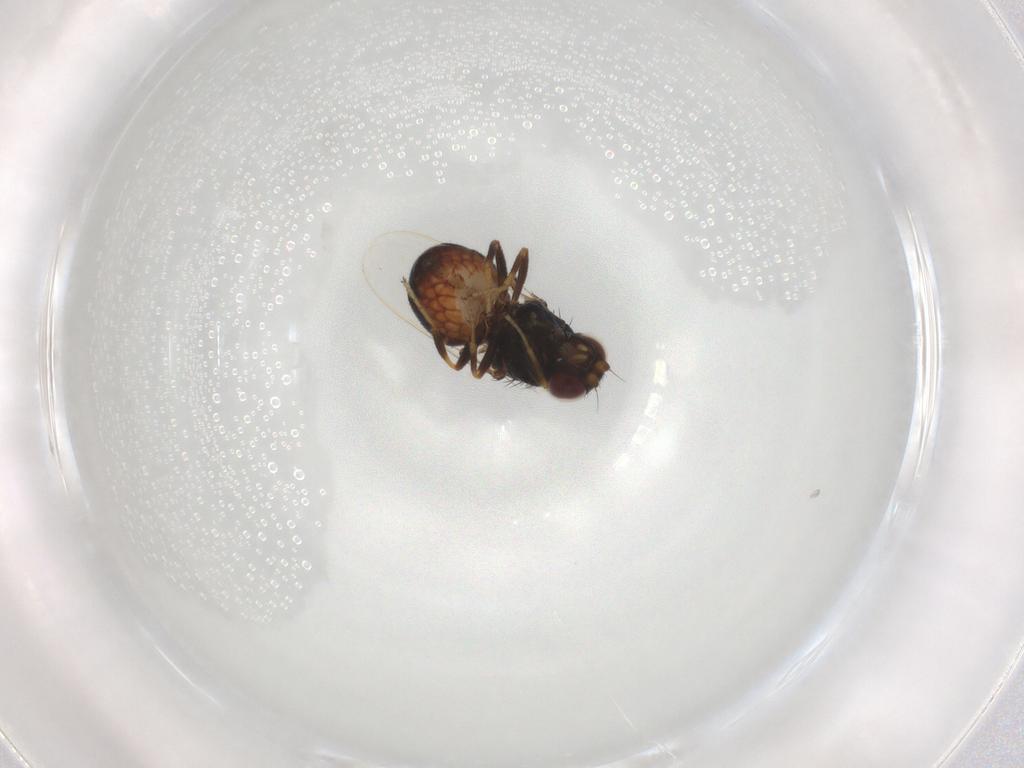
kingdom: Animalia
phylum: Arthropoda
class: Insecta
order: Diptera
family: Chloropidae
